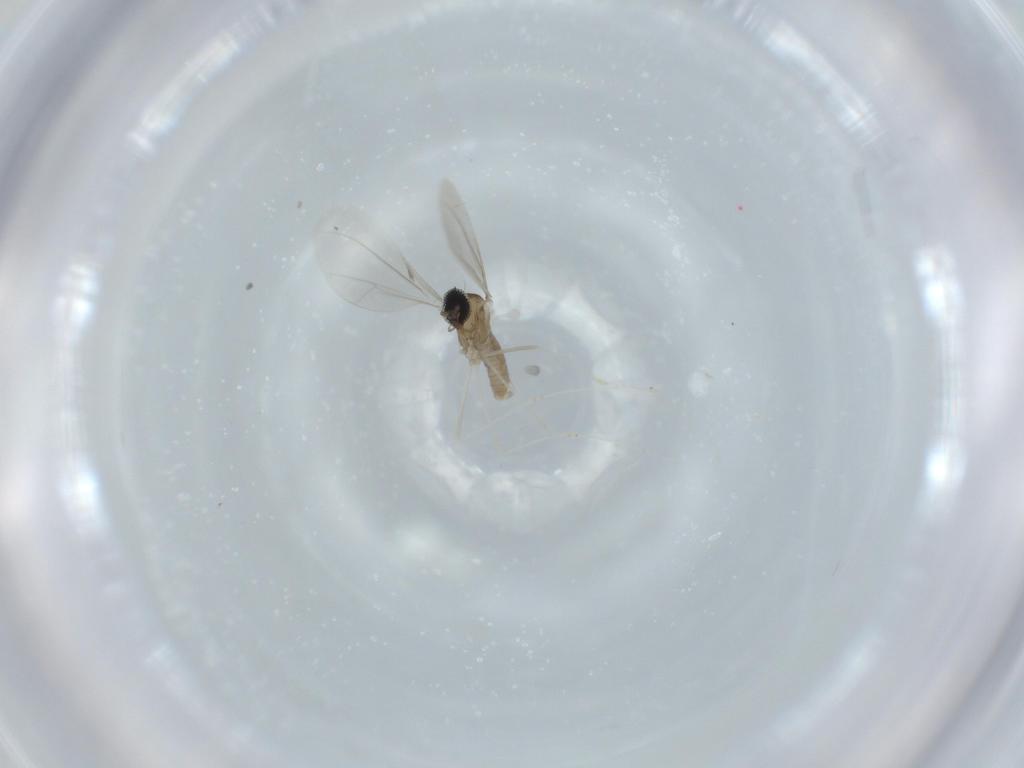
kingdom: Animalia
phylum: Arthropoda
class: Insecta
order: Diptera
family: Cecidomyiidae
